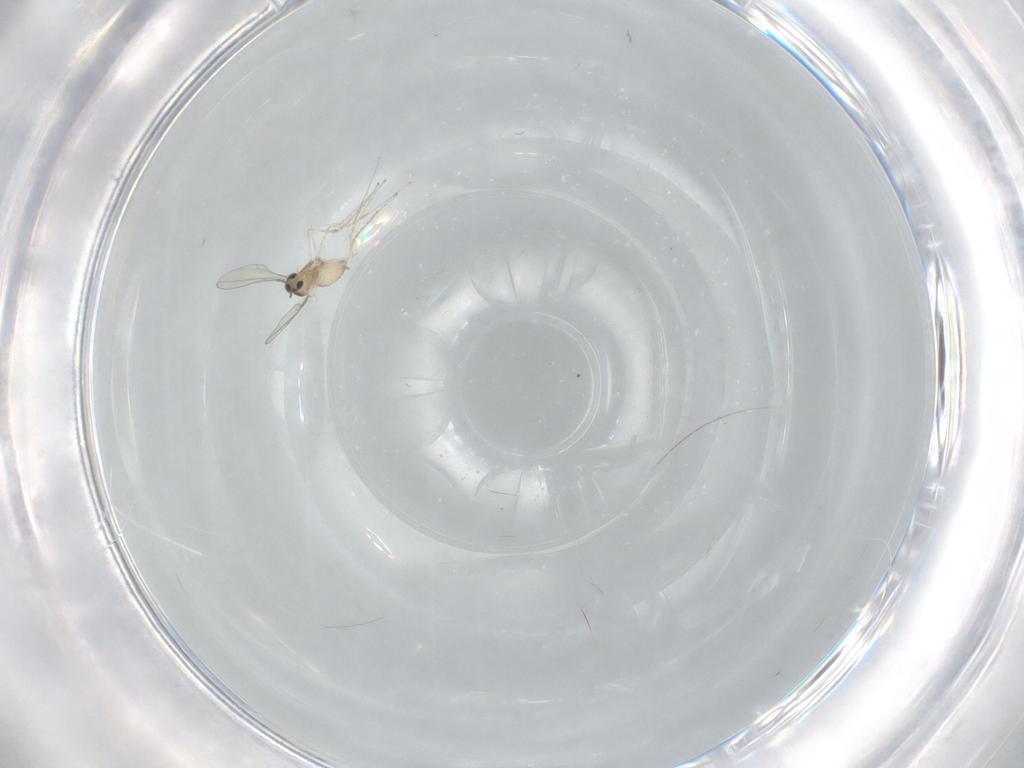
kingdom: Animalia
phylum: Arthropoda
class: Insecta
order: Diptera
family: Cecidomyiidae
